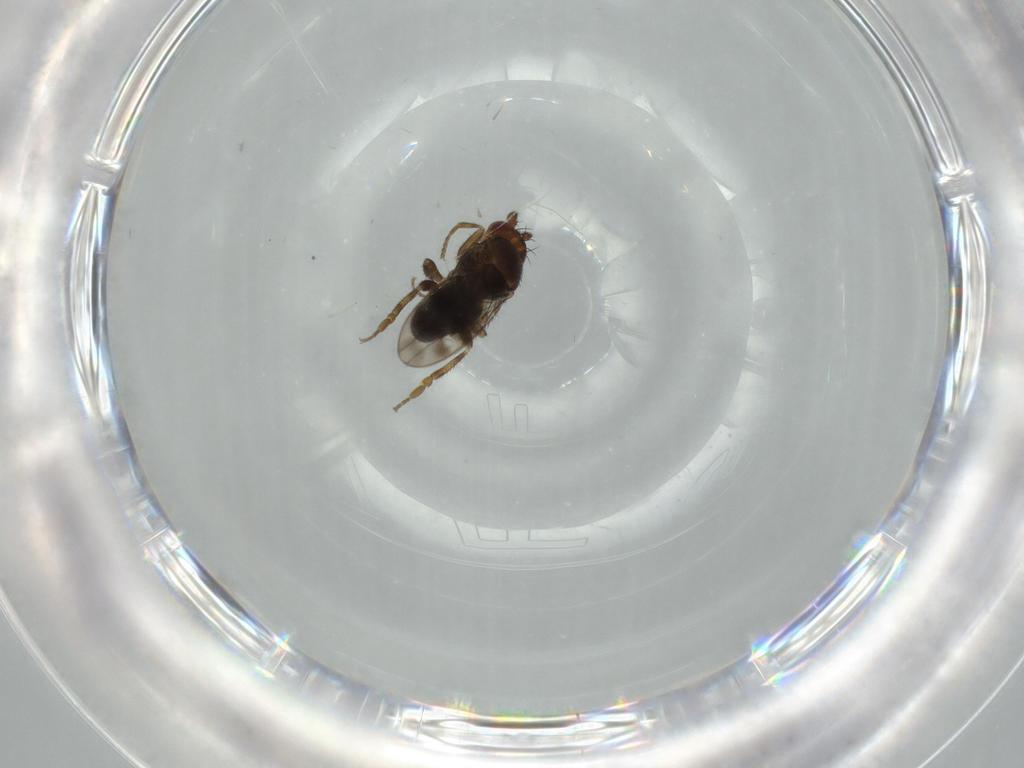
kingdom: Animalia
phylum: Arthropoda
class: Insecta
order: Diptera
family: Sphaeroceridae
